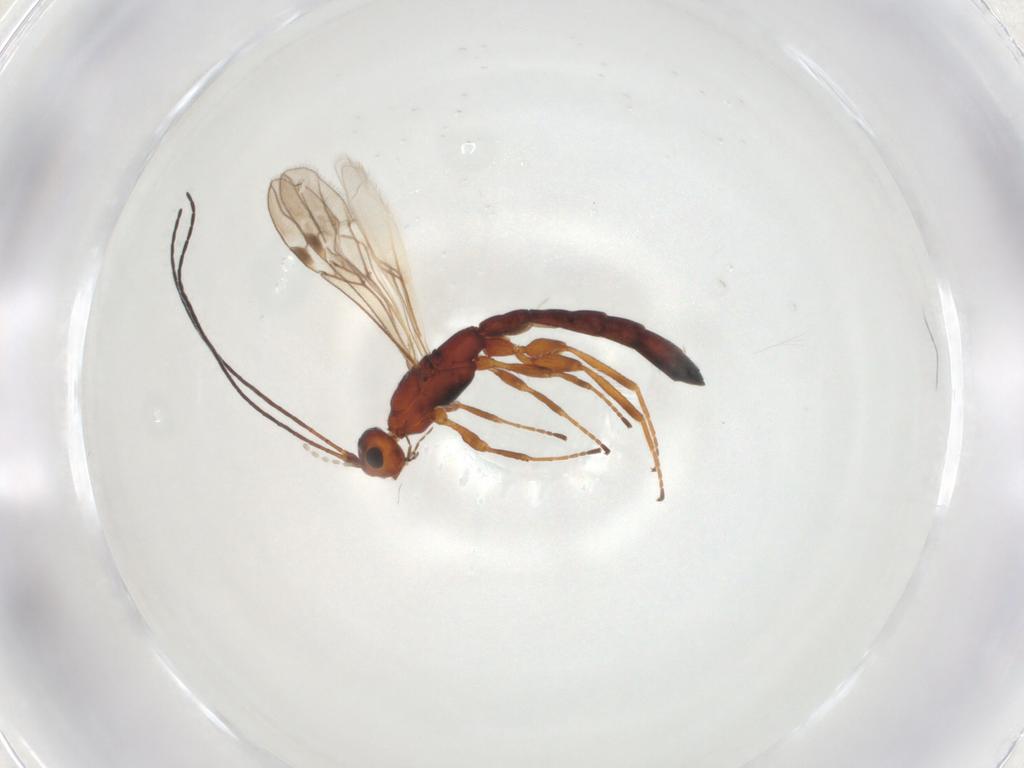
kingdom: Animalia
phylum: Arthropoda
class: Insecta
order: Hymenoptera
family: Braconidae
